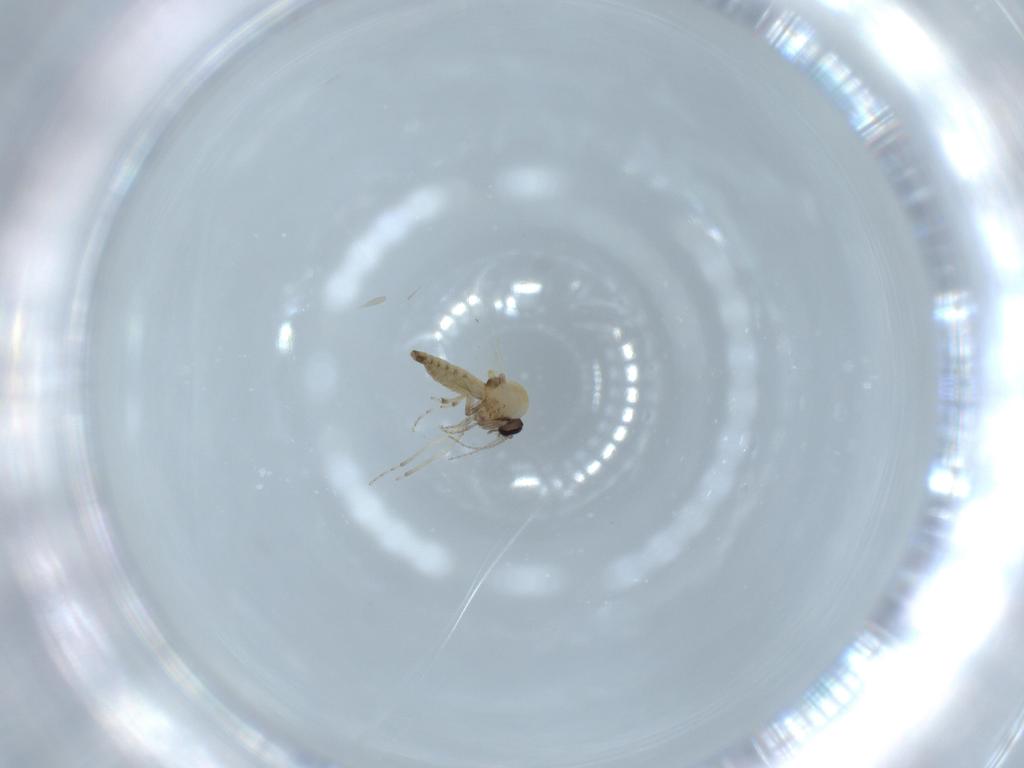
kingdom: Animalia
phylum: Arthropoda
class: Insecta
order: Diptera
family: Ceratopogonidae
